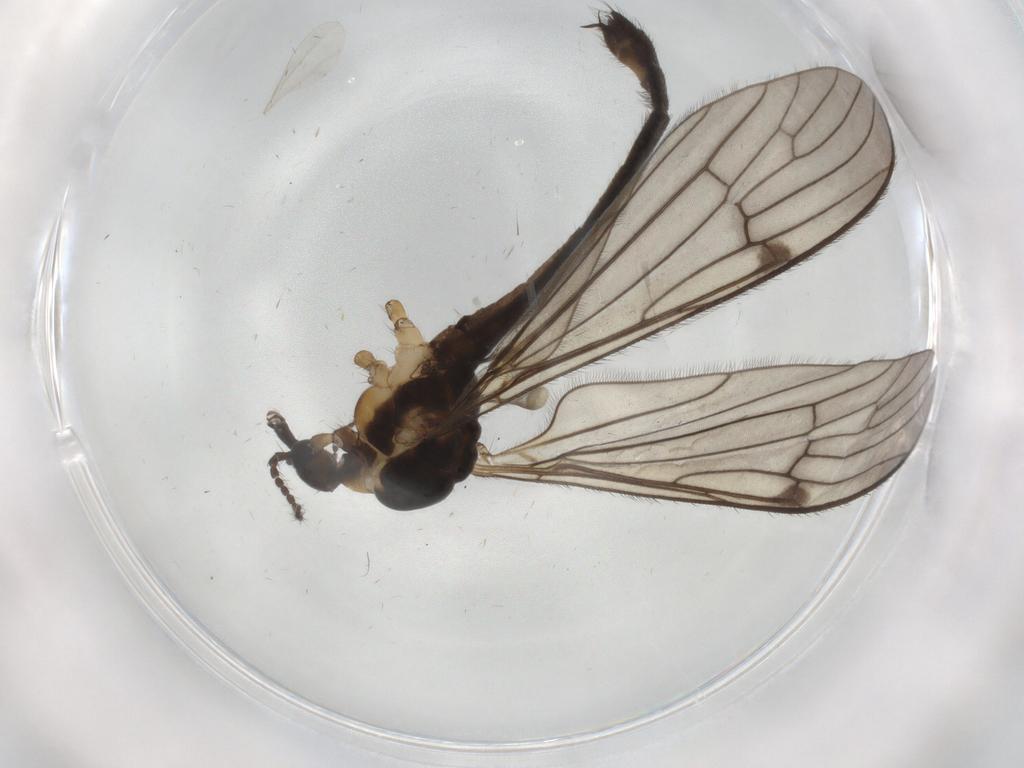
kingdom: Animalia
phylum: Arthropoda
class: Insecta
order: Diptera
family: Limoniidae
